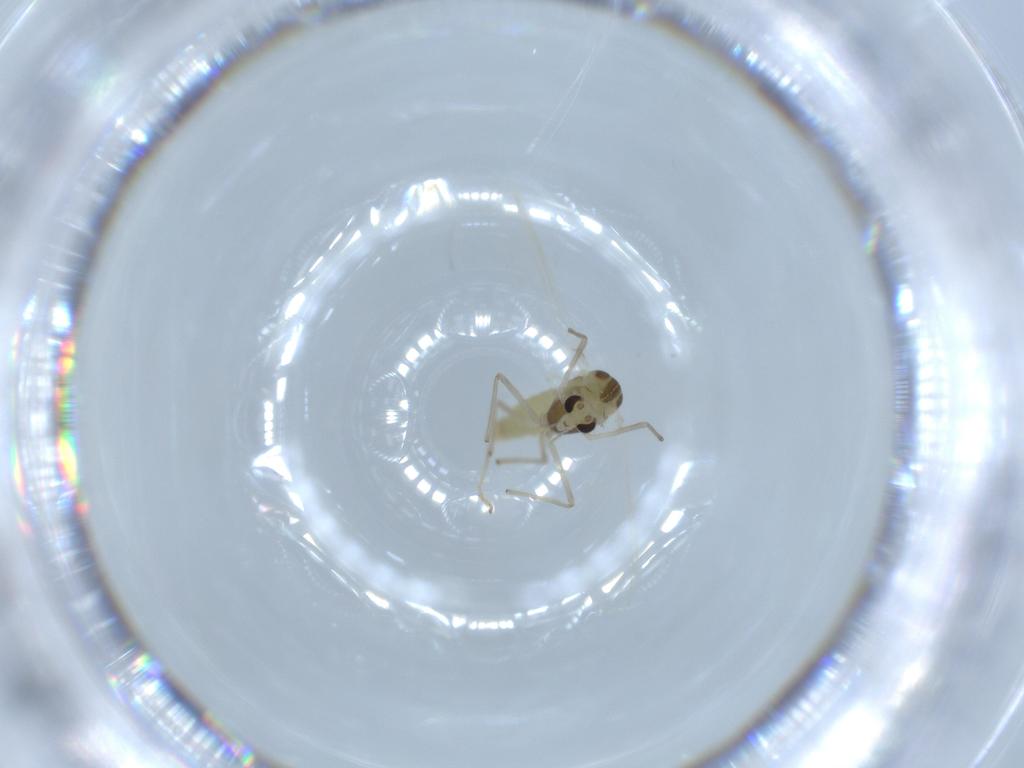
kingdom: Animalia
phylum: Arthropoda
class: Insecta
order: Diptera
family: Chironomidae
